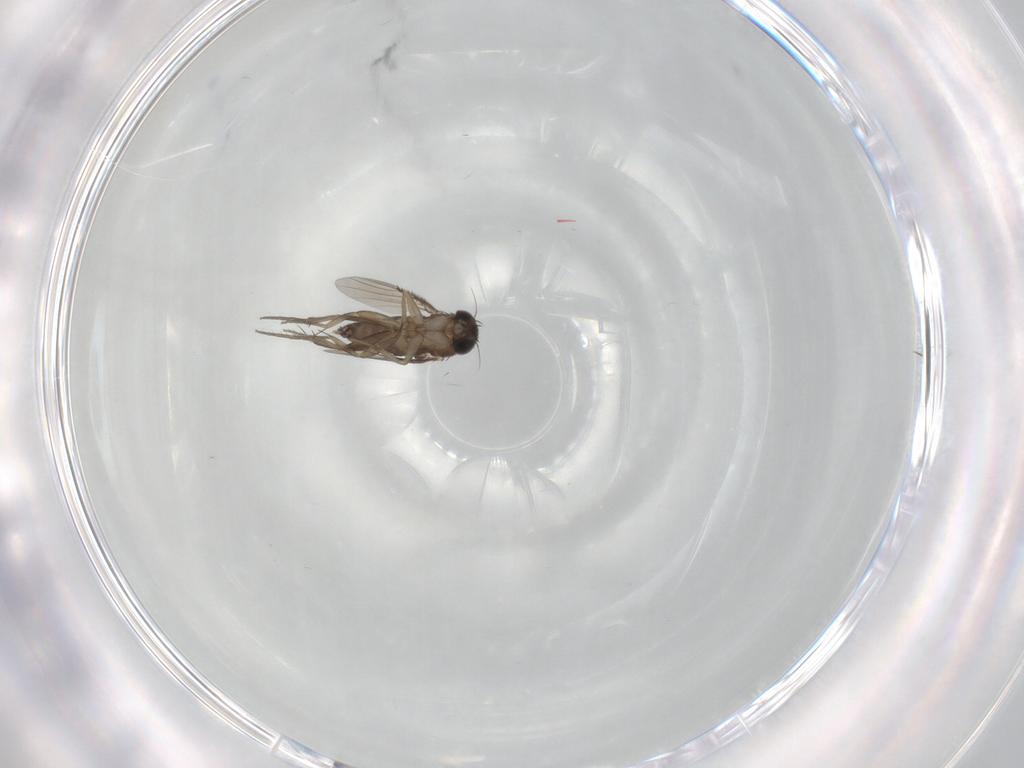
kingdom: Animalia
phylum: Arthropoda
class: Insecta
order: Diptera
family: Phoridae
